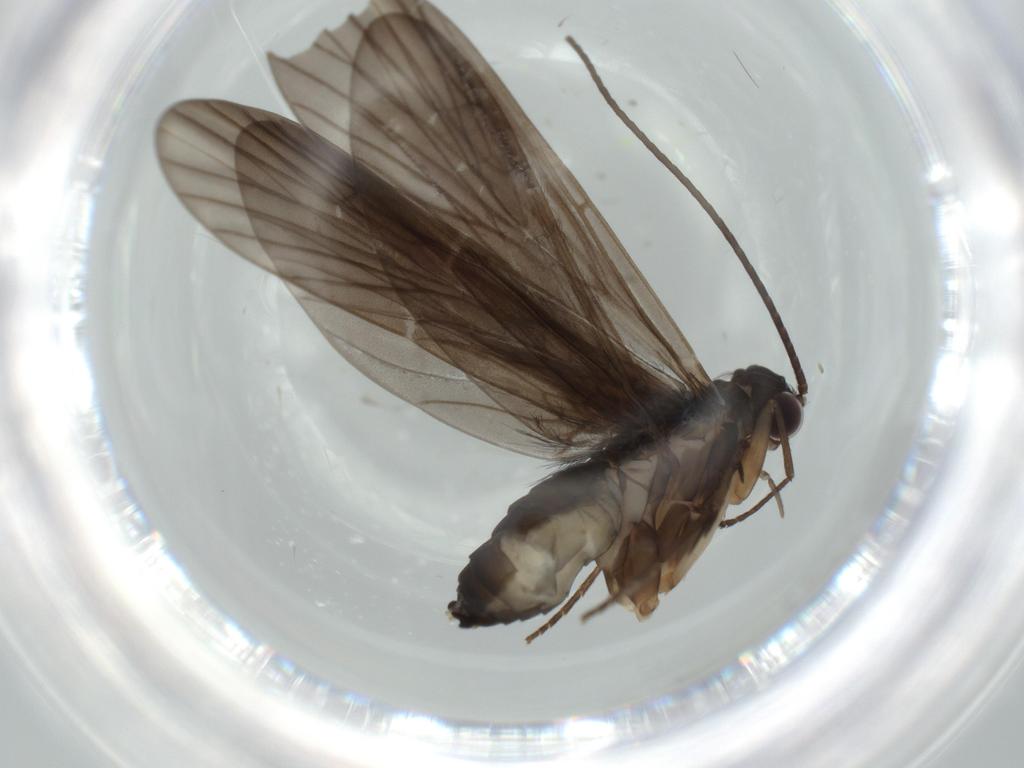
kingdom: Animalia
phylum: Arthropoda
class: Insecta
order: Trichoptera
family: Philopotamidae
